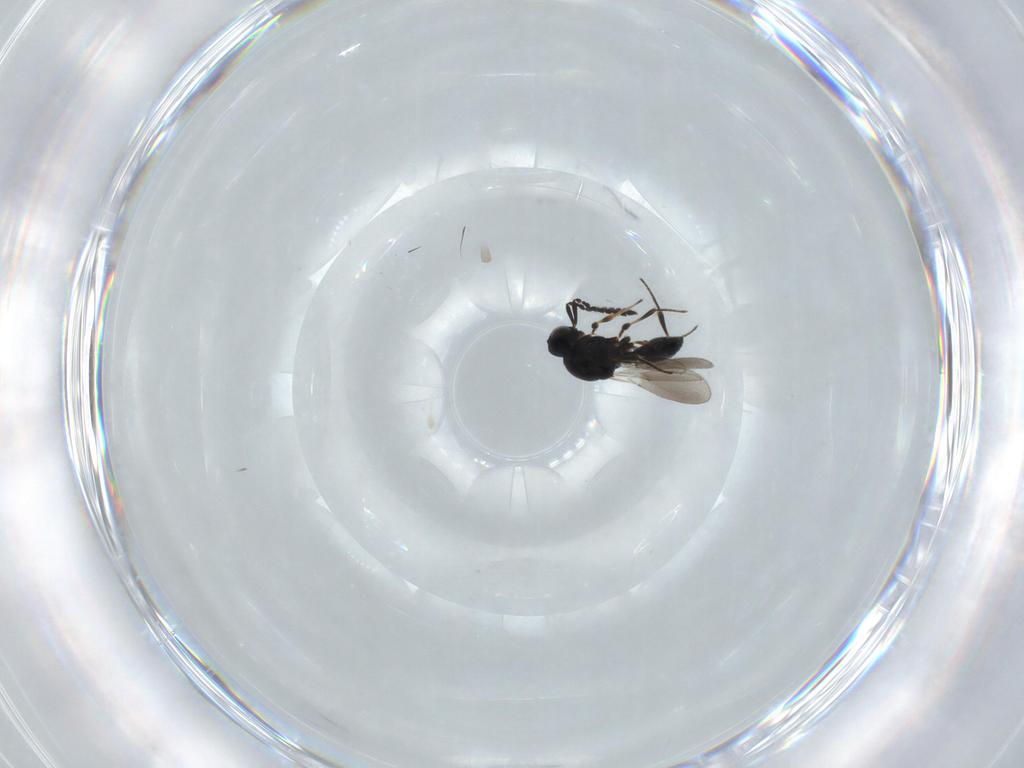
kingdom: Animalia
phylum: Arthropoda
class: Insecta
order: Hymenoptera
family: Platygastridae
